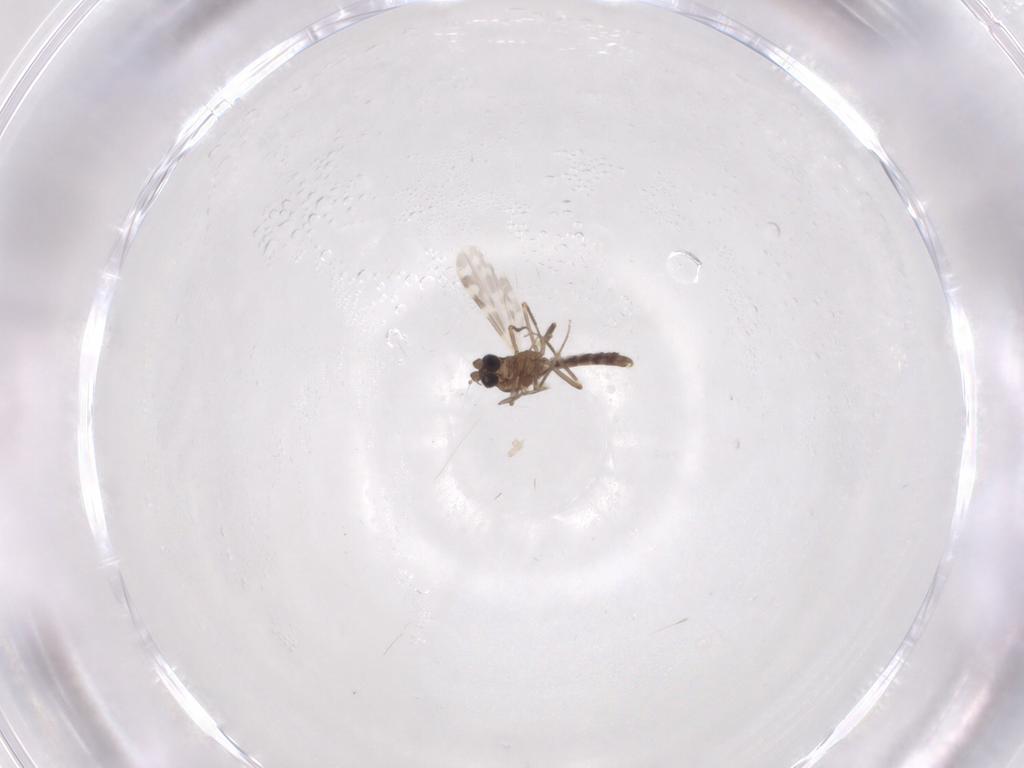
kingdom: Animalia
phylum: Arthropoda
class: Insecta
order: Diptera
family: Ceratopogonidae
